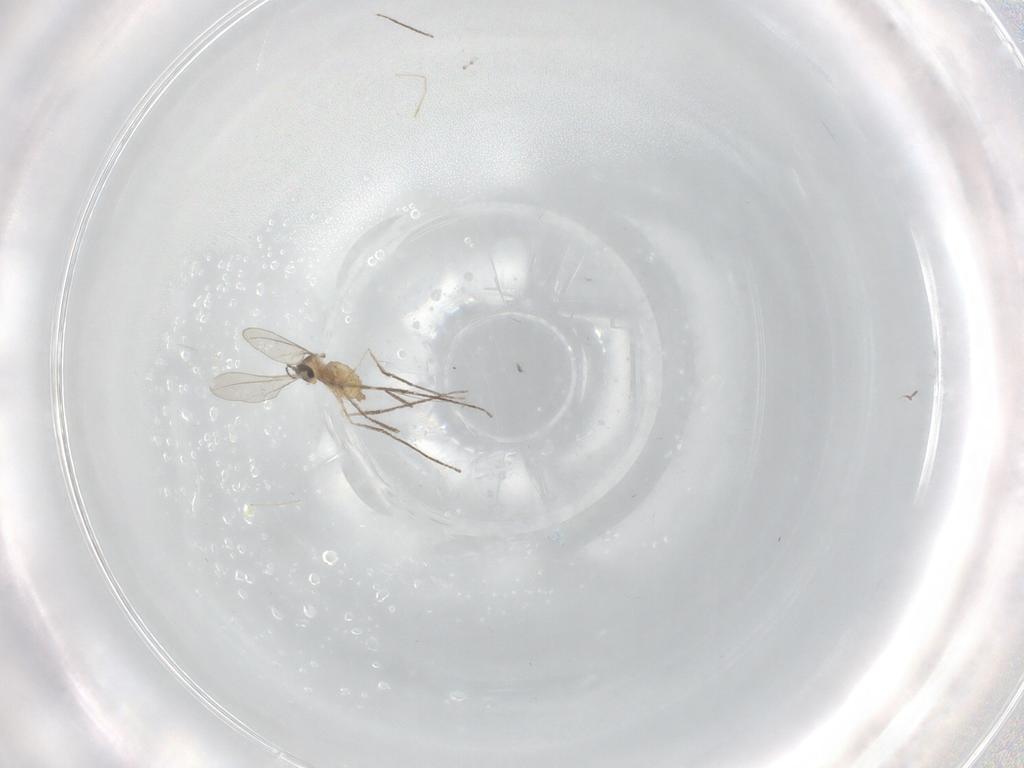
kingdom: Animalia
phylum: Arthropoda
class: Insecta
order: Diptera
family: Cecidomyiidae
